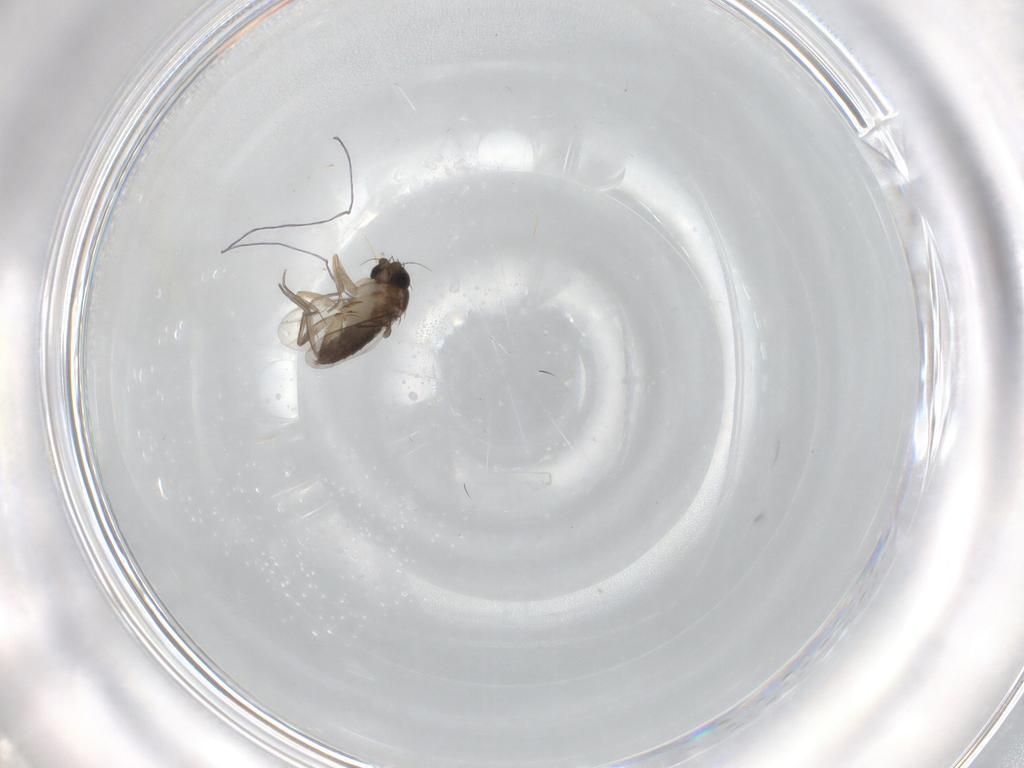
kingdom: Animalia
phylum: Arthropoda
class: Insecta
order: Diptera
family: Phoridae
